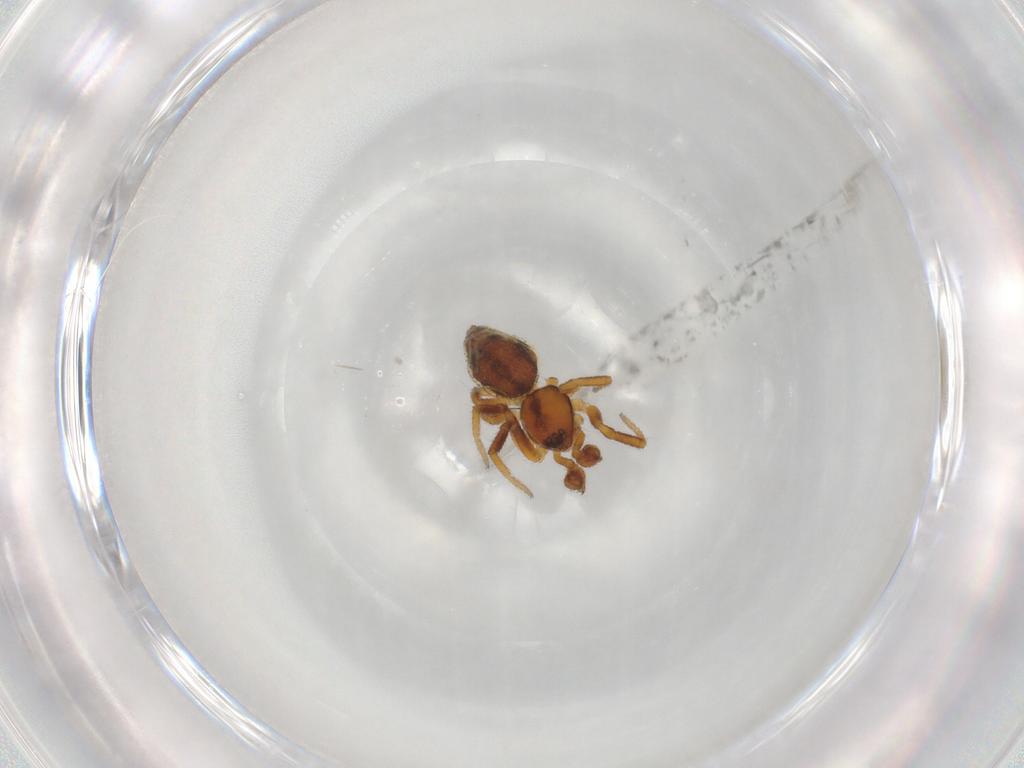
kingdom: Animalia
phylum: Arthropoda
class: Arachnida
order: Araneae
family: Theridiidae
